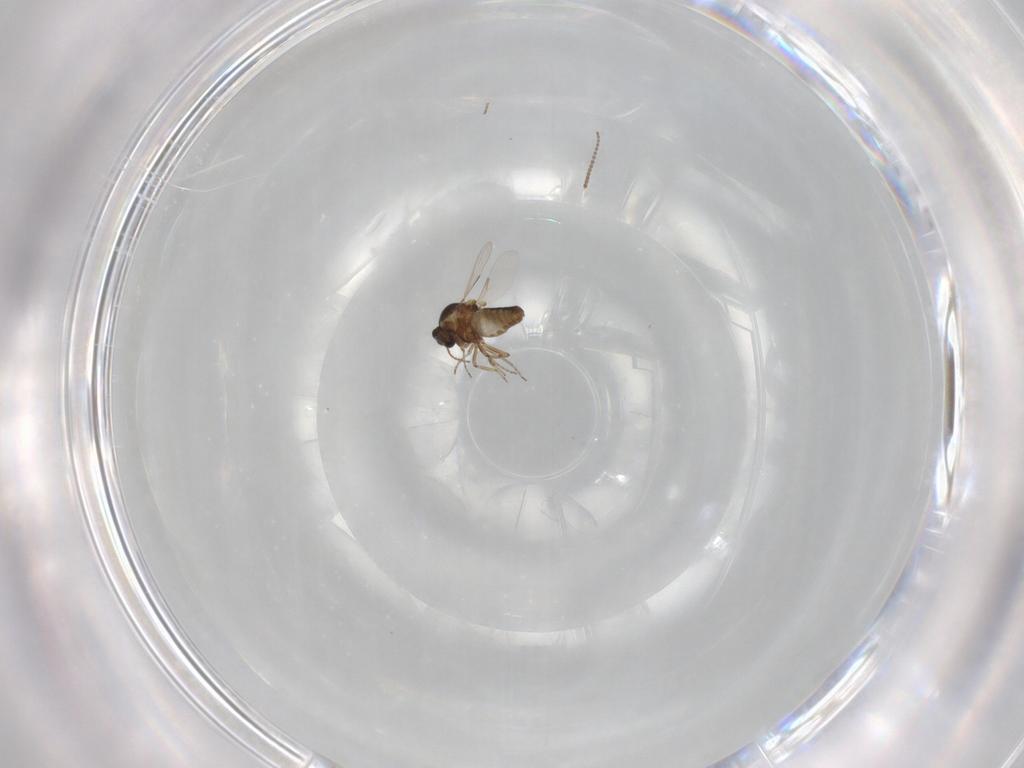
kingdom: Animalia
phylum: Arthropoda
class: Insecta
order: Diptera
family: Ceratopogonidae
